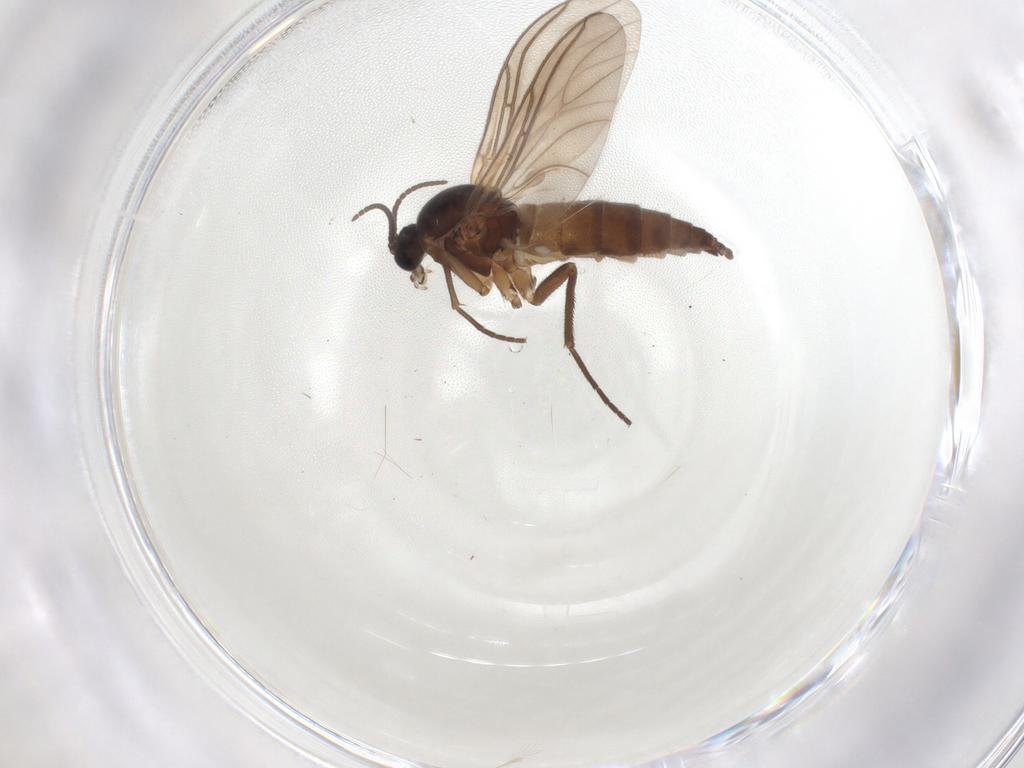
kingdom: Animalia
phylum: Arthropoda
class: Insecta
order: Diptera
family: Sciaridae
